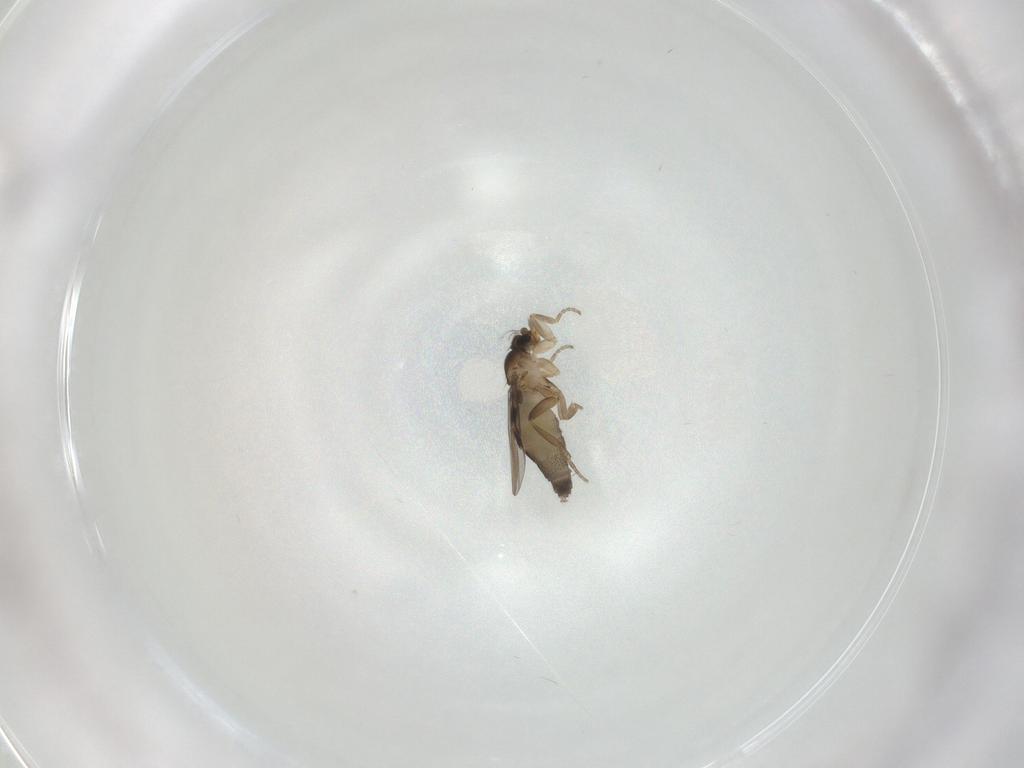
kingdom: Animalia
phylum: Arthropoda
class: Insecta
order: Diptera
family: Phoridae
